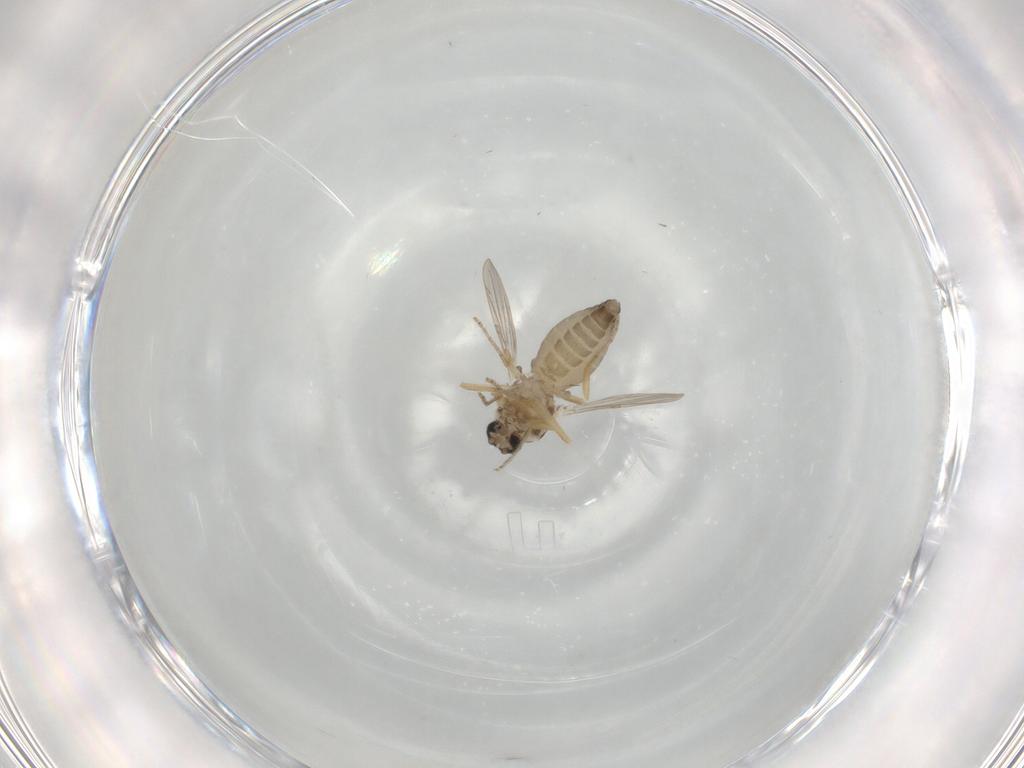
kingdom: Animalia
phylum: Arthropoda
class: Insecta
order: Diptera
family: Ceratopogonidae
